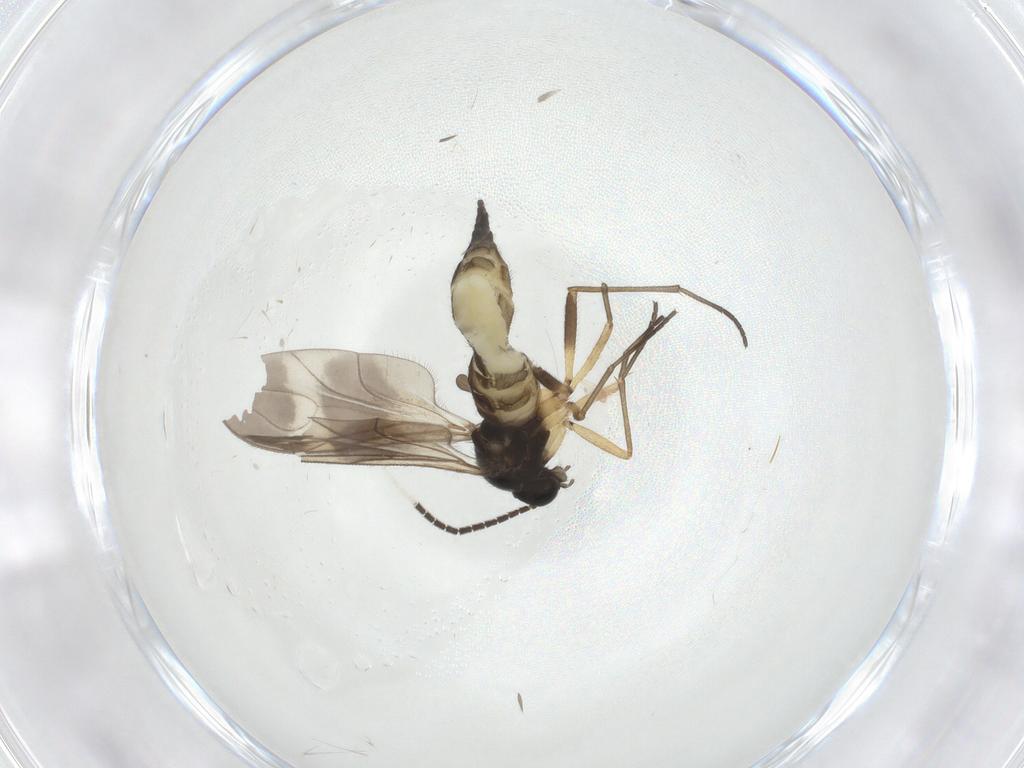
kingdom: Animalia
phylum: Arthropoda
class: Insecta
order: Diptera
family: Sciaridae
